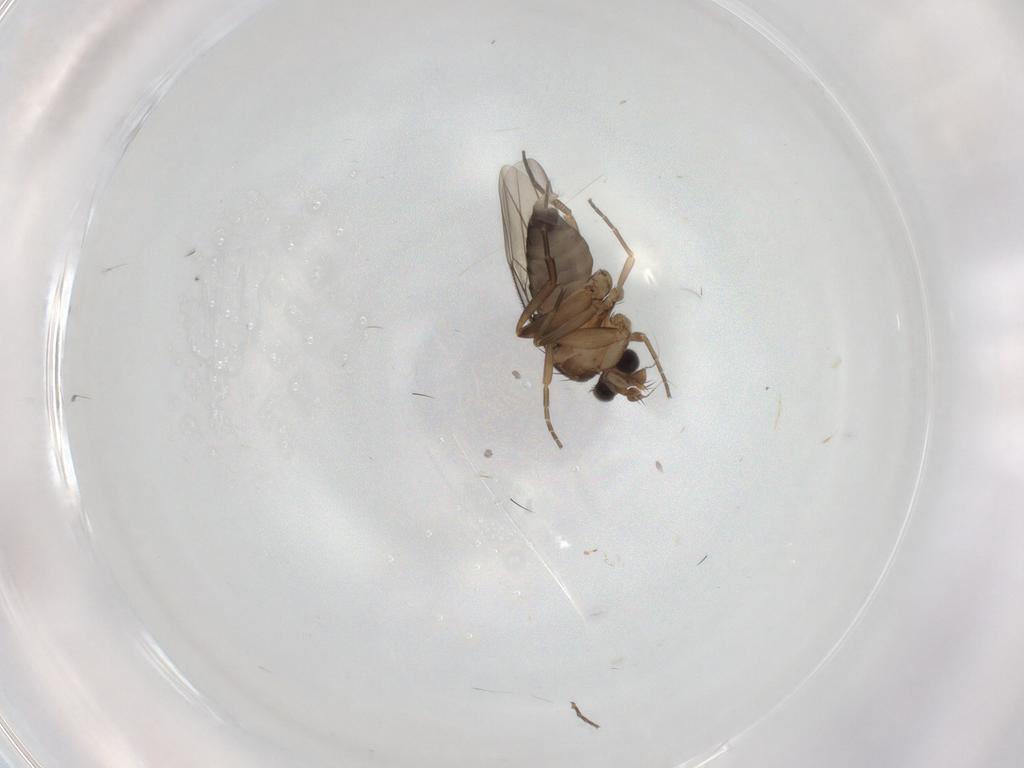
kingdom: Animalia
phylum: Arthropoda
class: Insecta
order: Diptera
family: Phoridae
